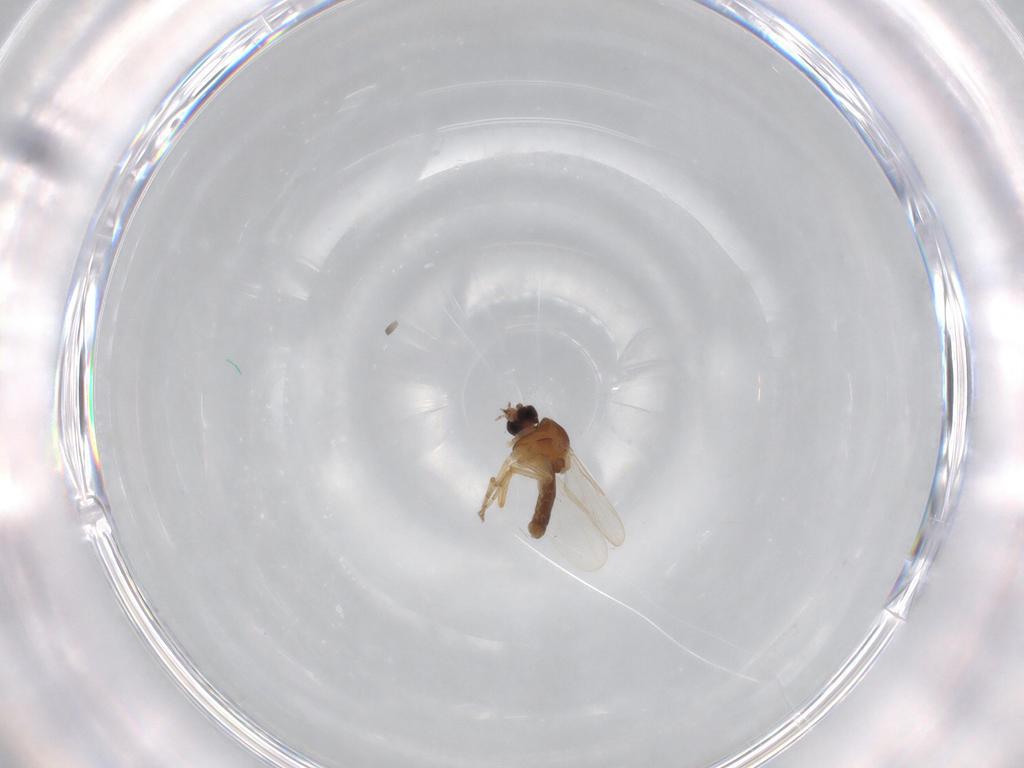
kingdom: Animalia
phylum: Arthropoda
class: Insecta
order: Diptera
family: Ceratopogonidae
